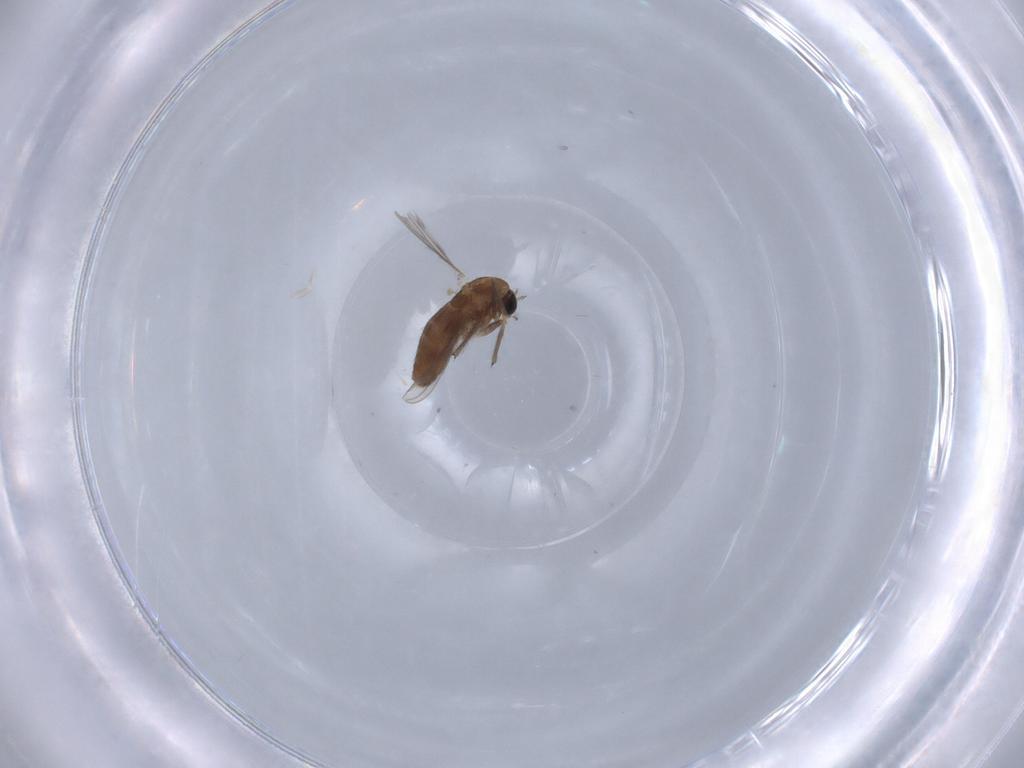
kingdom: Animalia
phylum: Arthropoda
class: Insecta
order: Diptera
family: Chironomidae
